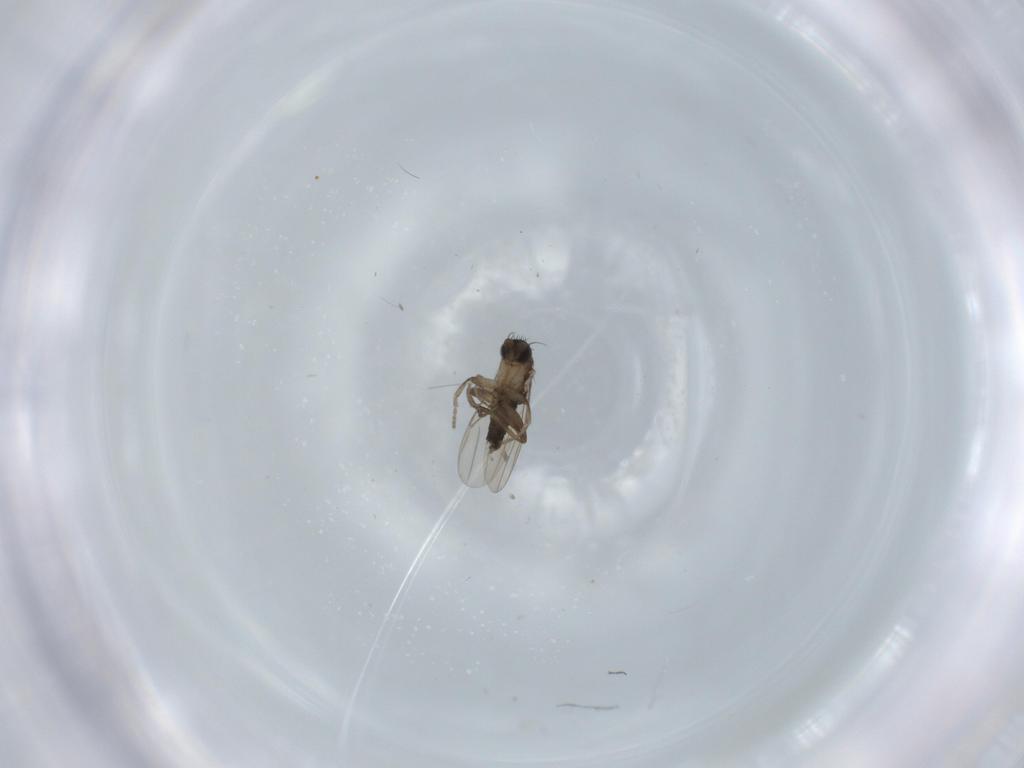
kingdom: Animalia
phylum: Arthropoda
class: Insecta
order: Diptera
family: Phoridae
